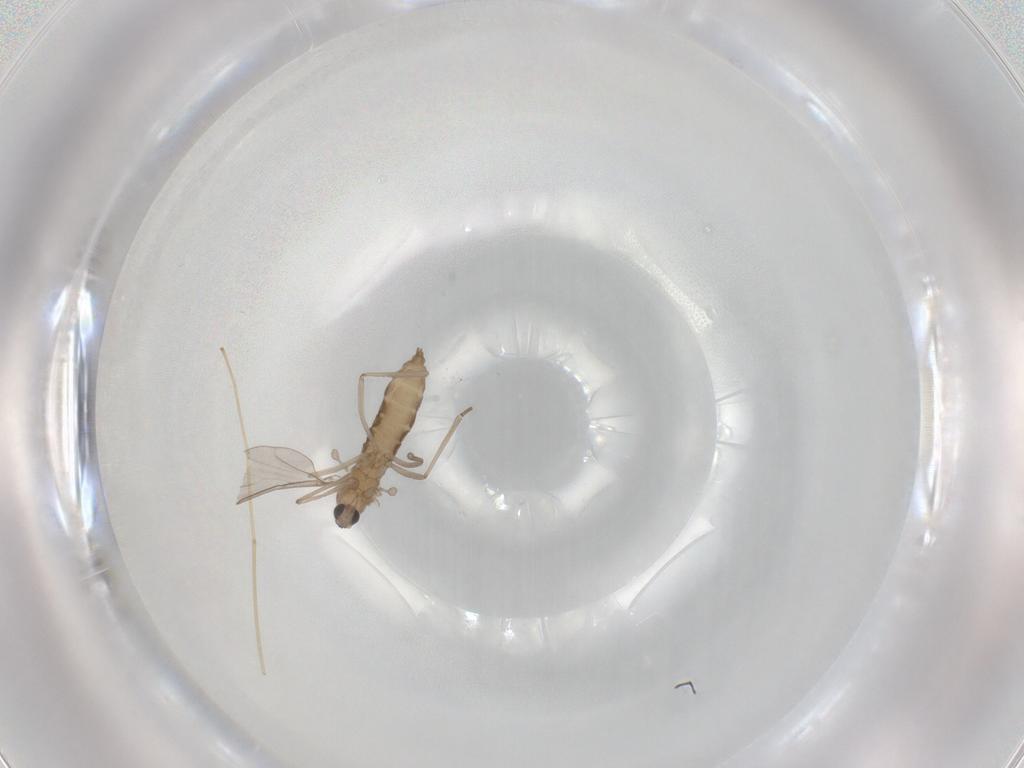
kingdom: Animalia
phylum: Arthropoda
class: Insecta
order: Diptera
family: Cecidomyiidae
